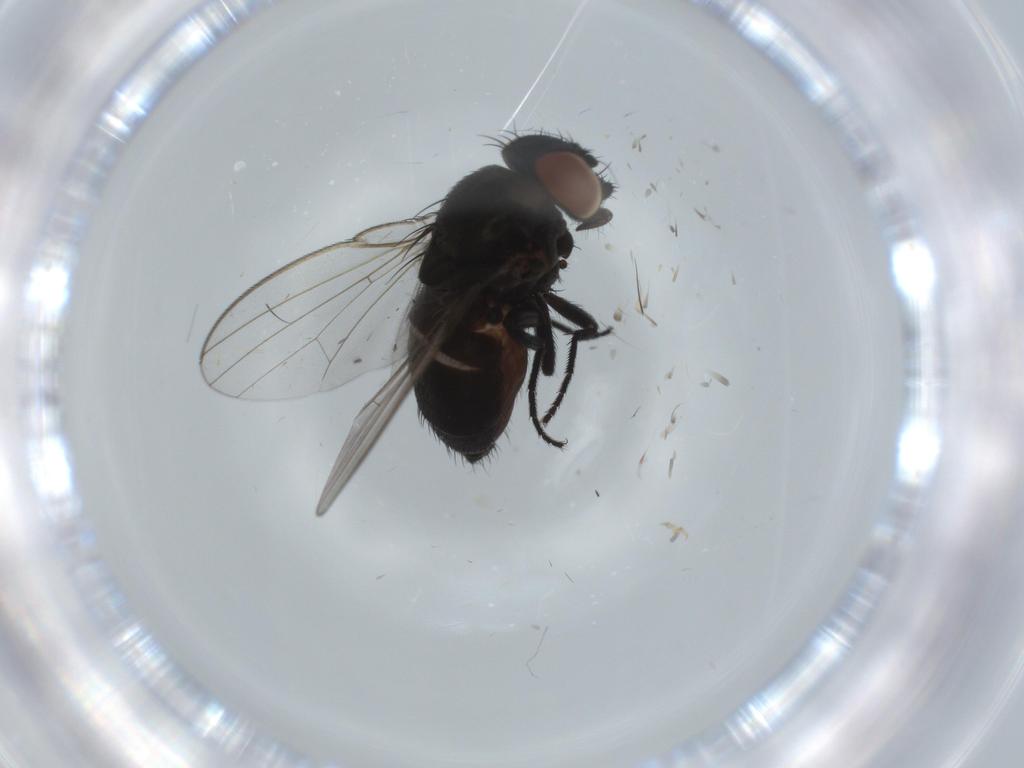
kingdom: Animalia
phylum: Arthropoda
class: Insecta
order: Diptera
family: Milichiidae
